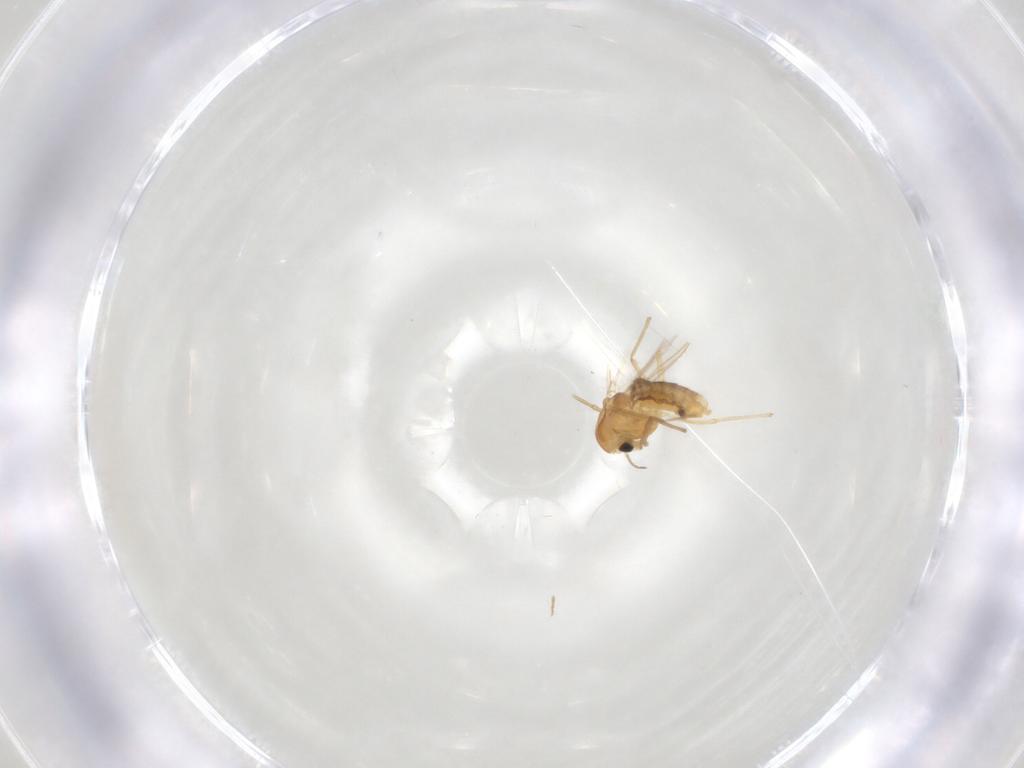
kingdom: Animalia
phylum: Arthropoda
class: Insecta
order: Diptera
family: Chironomidae
